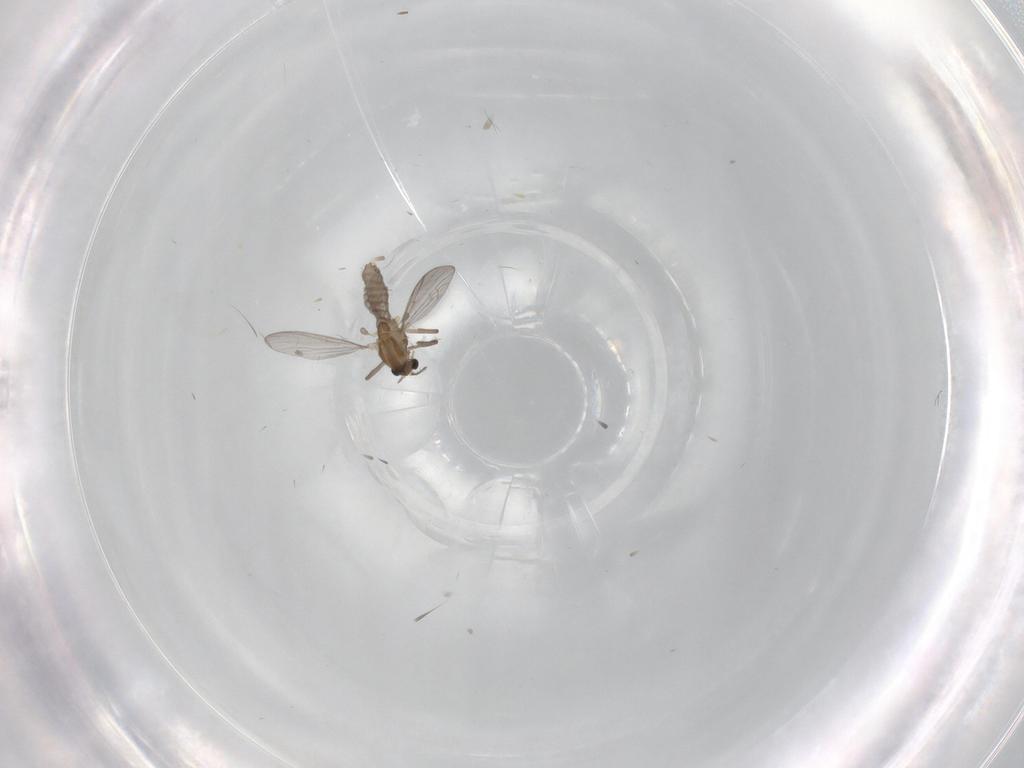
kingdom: Animalia
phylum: Arthropoda
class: Insecta
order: Diptera
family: Chironomidae
